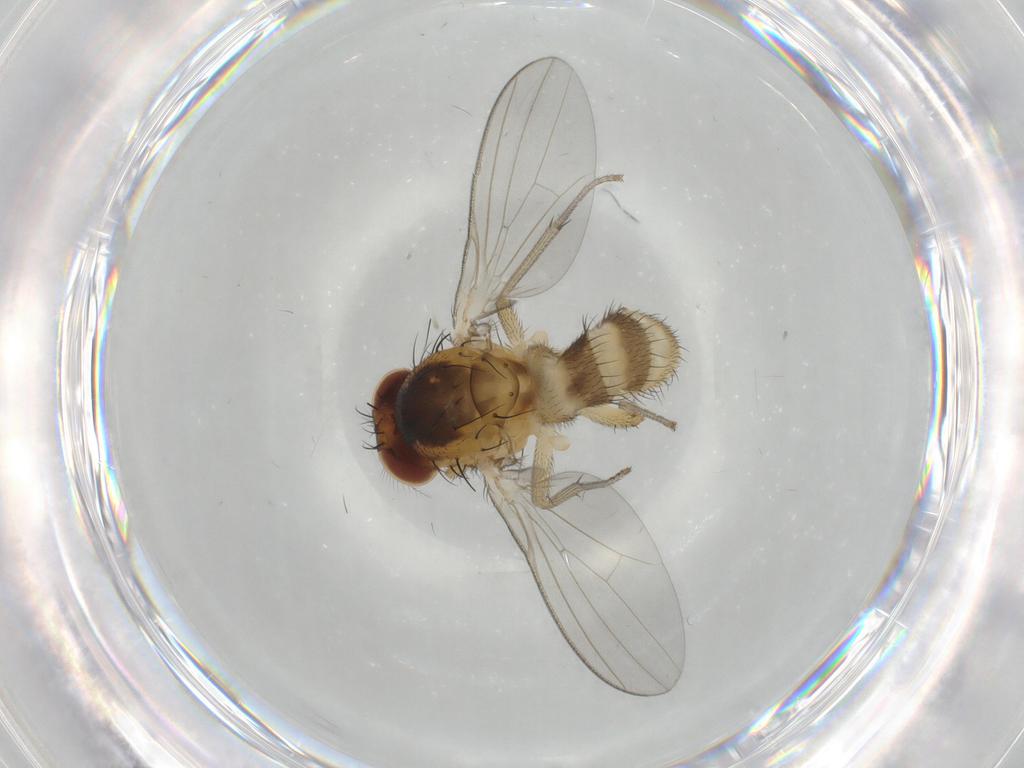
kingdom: Animalia
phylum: Arthropoda
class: Insecta
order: Diptera
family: Lauxaniidae
